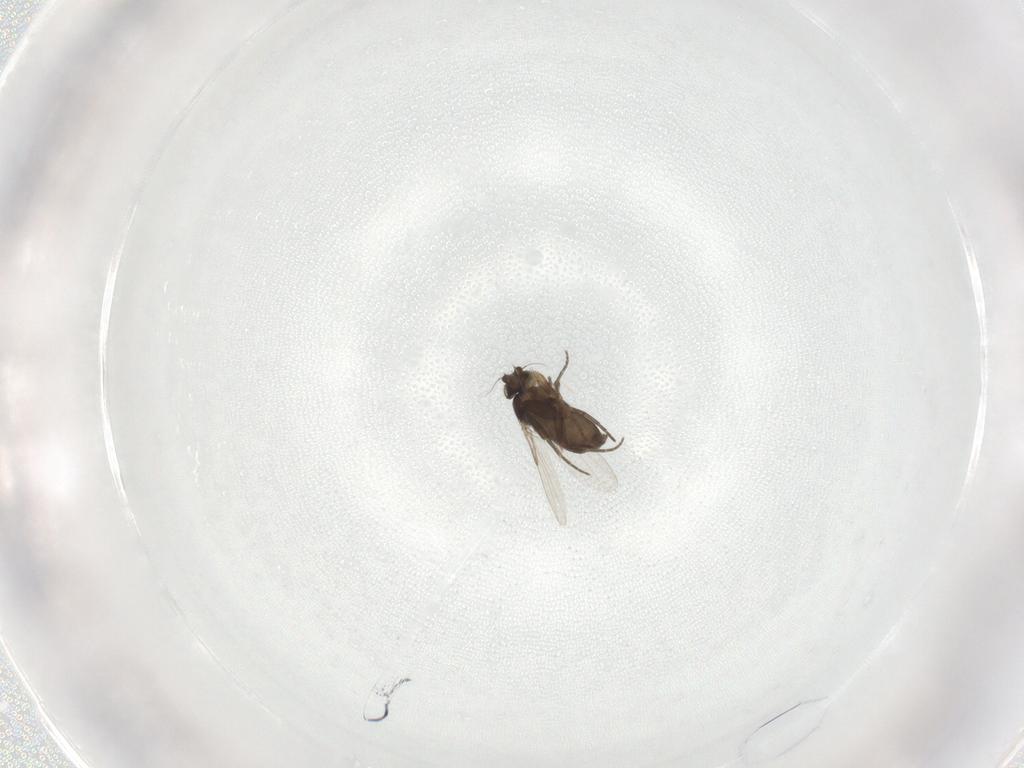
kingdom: Animalia
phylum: Arthropoda
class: Insecta
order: Diptera
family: Phoridae
